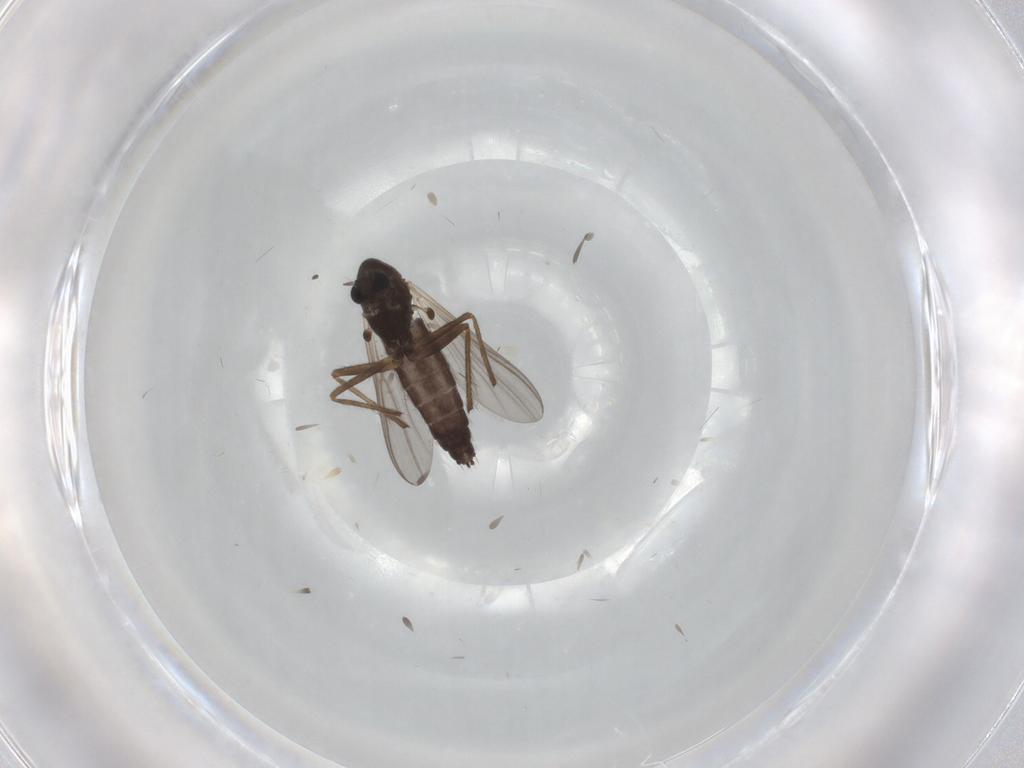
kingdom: Animalia
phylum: Arthropoda
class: Insecta
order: Diptera
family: Chironomidae
